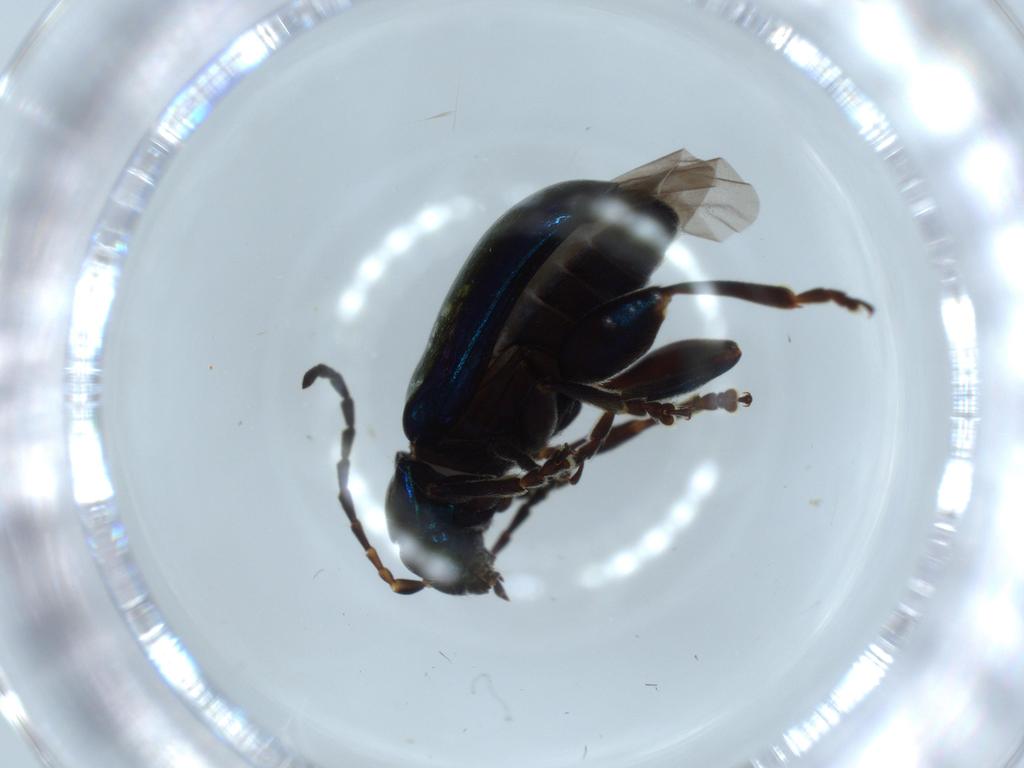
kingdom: Animalia
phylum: Arthropoda
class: Insecta
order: Coleoptera
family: Chrysomelidae
